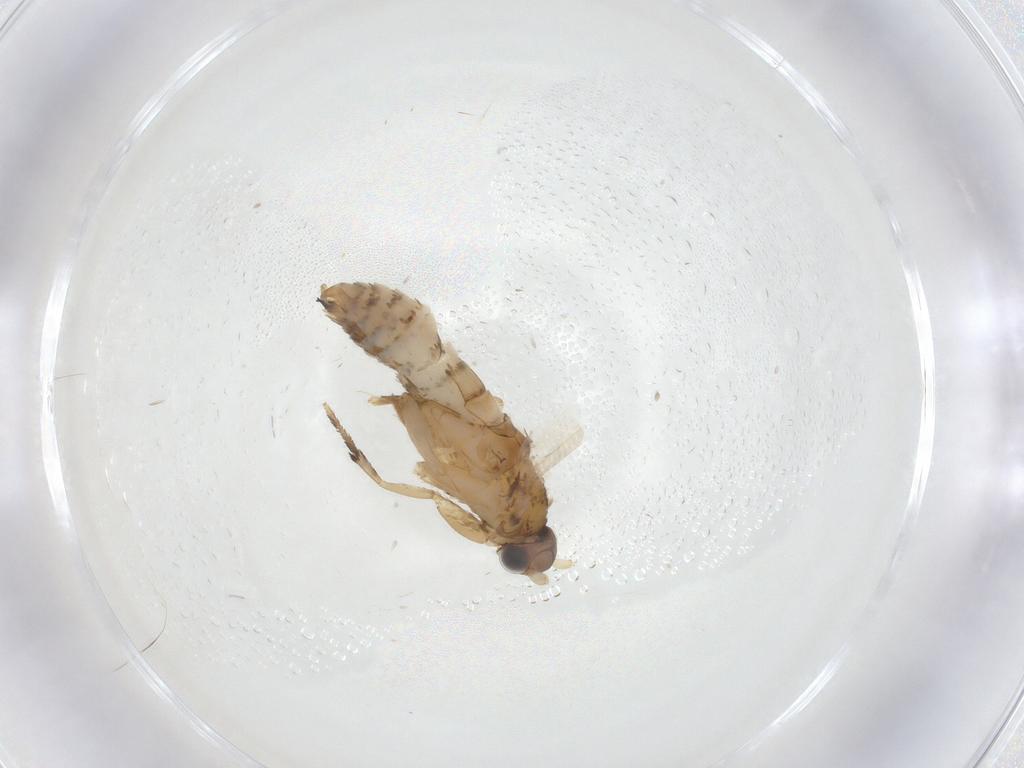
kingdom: Animalia
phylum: Arthropoda
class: Insecta
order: Lepidoptera
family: Tineidae
